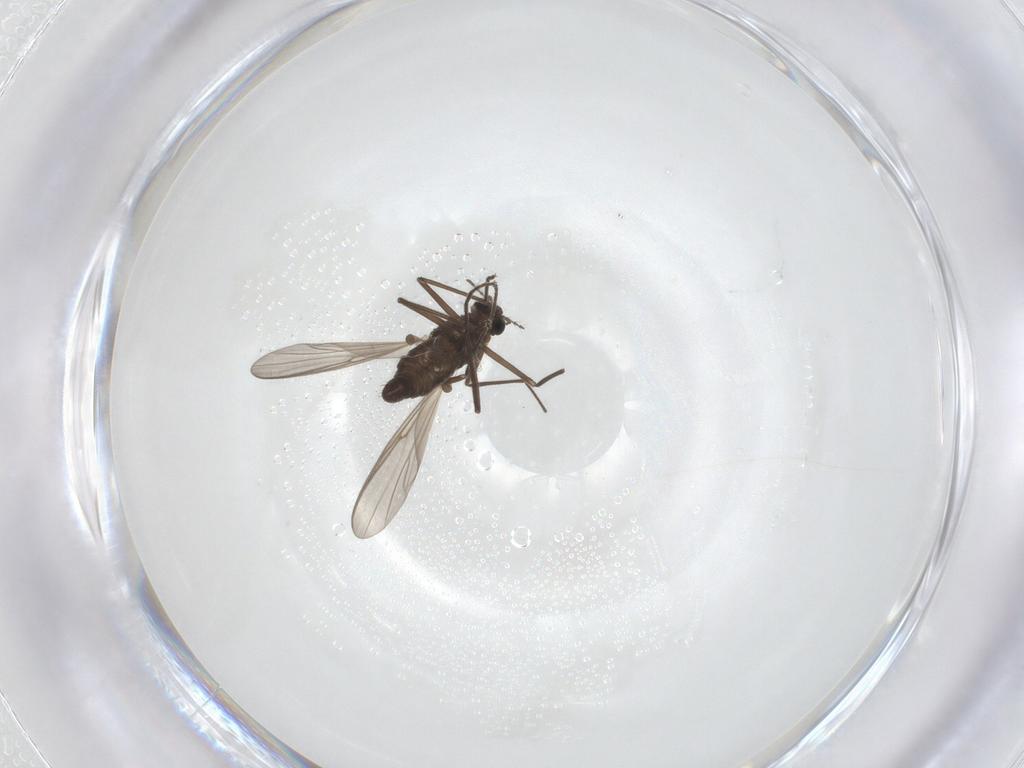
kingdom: Animalia
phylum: Arthropoda
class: Insecta
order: Diptera
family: Chironomidae
